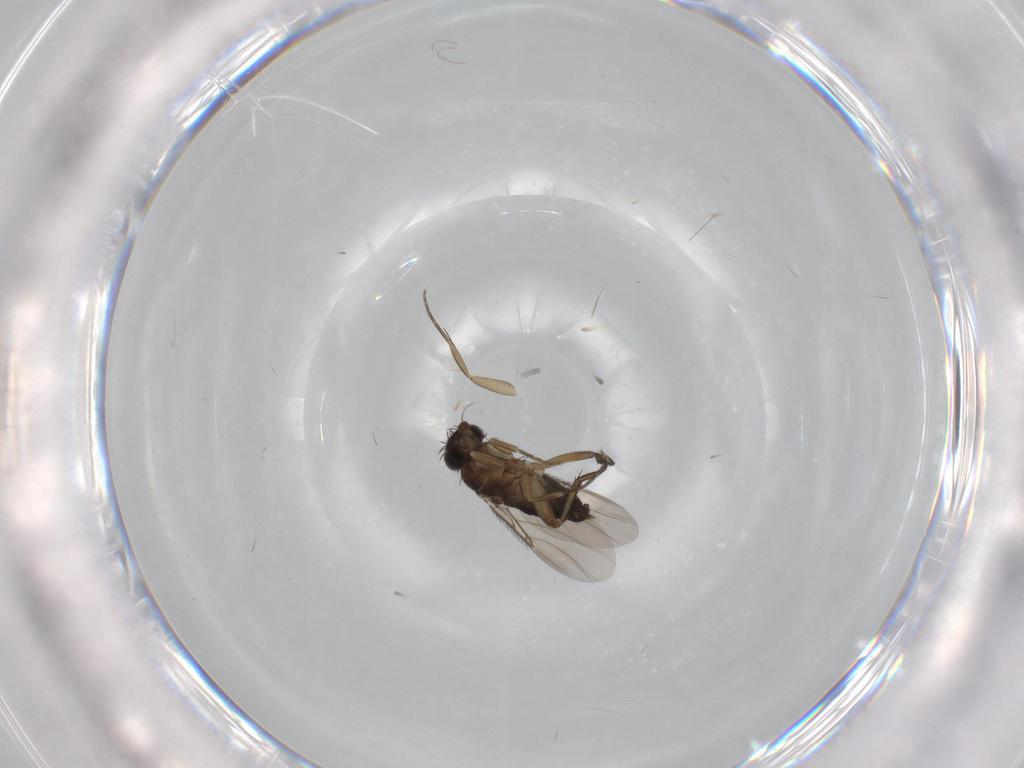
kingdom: Animalia
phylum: Arthropoda
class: Insecta
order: Diptera
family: Phoridae
